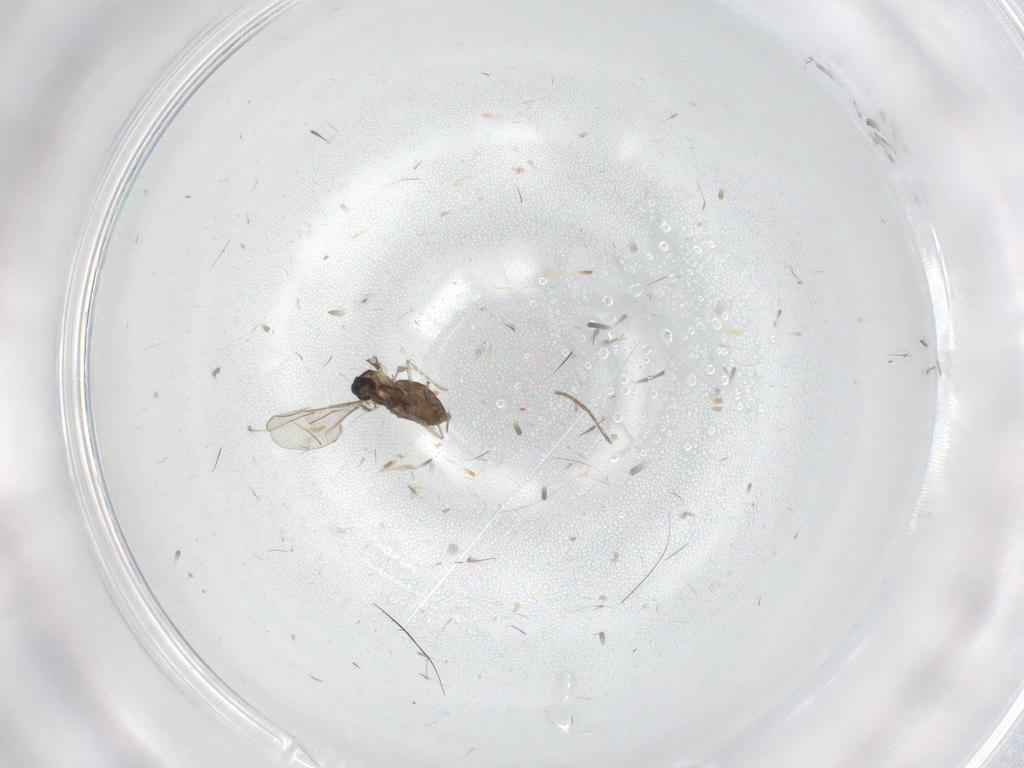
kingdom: Animalia
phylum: Arthropoda
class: Insecta
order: Diptera
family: Cecidomyiidae
